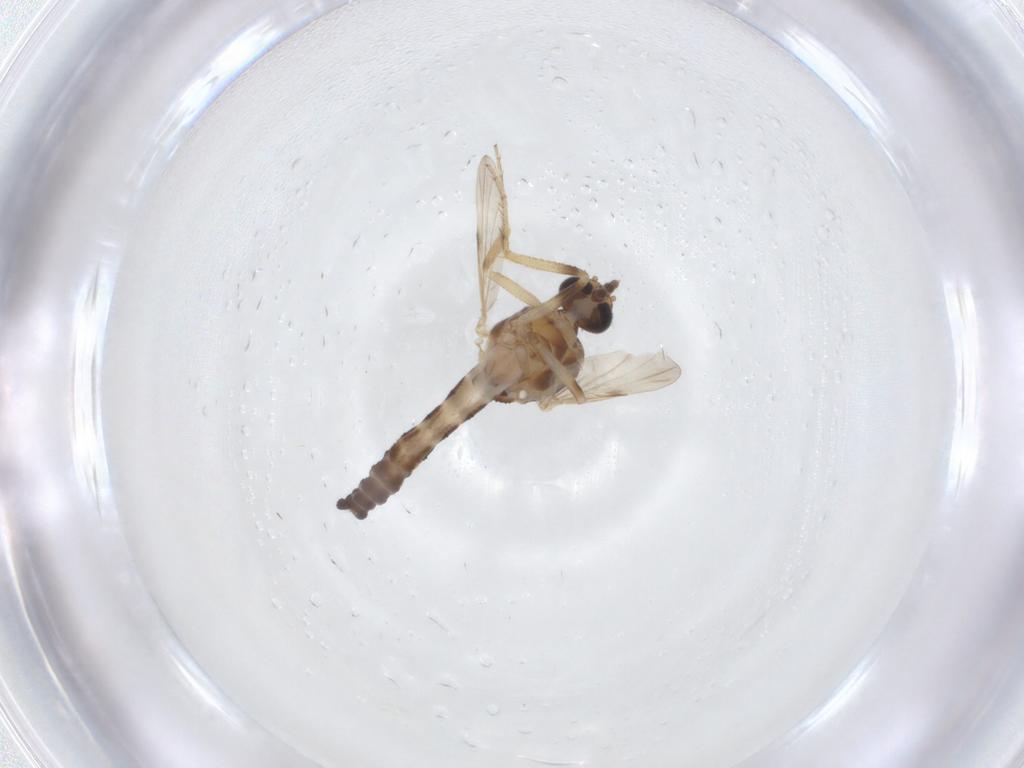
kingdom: Animalia
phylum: Arthropoda
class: Insecta
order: Diptera
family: Ceratopogonidae
